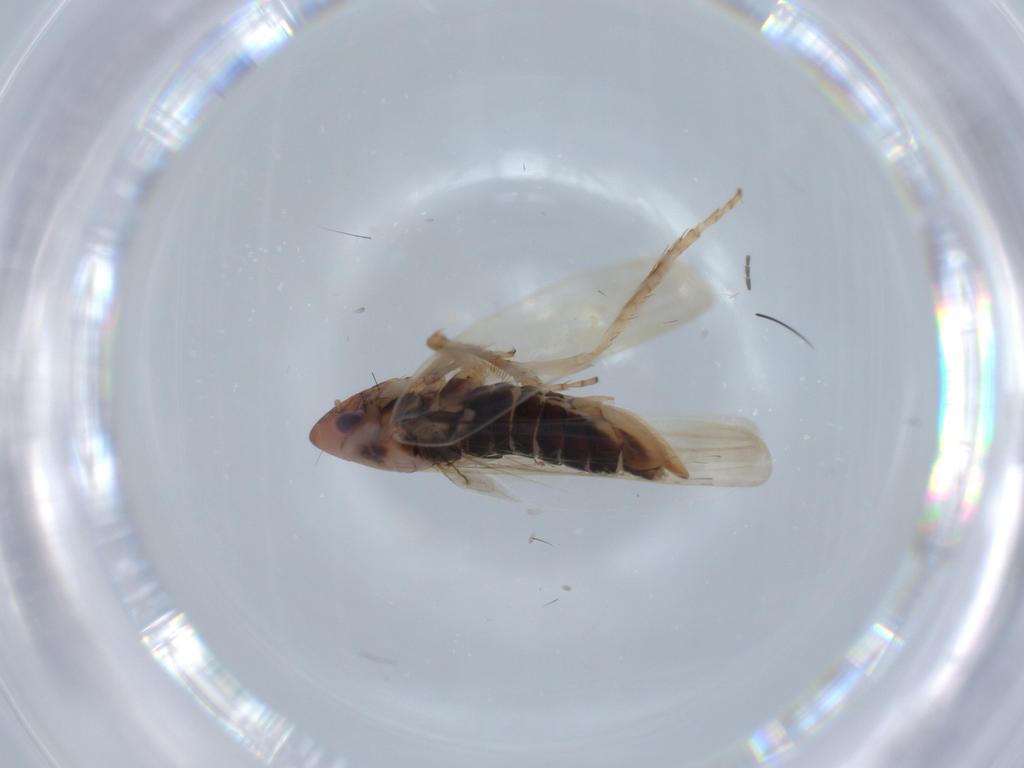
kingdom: Animalia
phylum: Arthropoda
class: Insecta
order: Hemiptera
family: Cicadellidae
